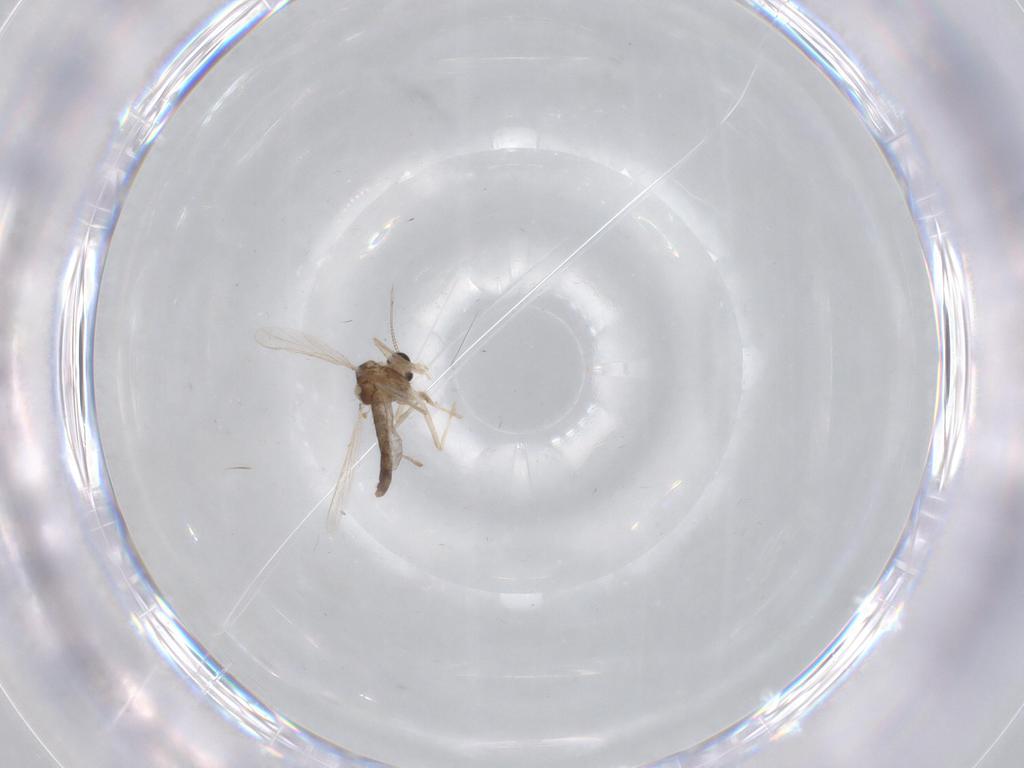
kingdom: Animalia
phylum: Arthropoda
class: Insecta
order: Diptera
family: Chironomidae
